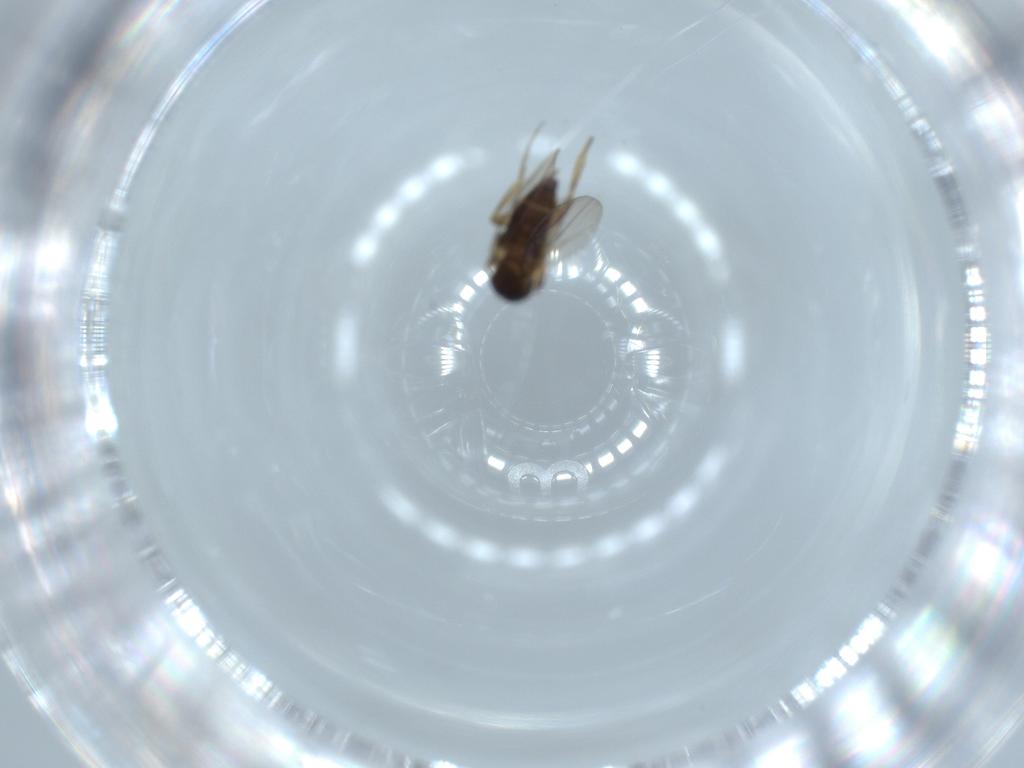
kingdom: Animalia
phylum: Arthropoda
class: Insecta
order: Diptera
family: Phoridae
